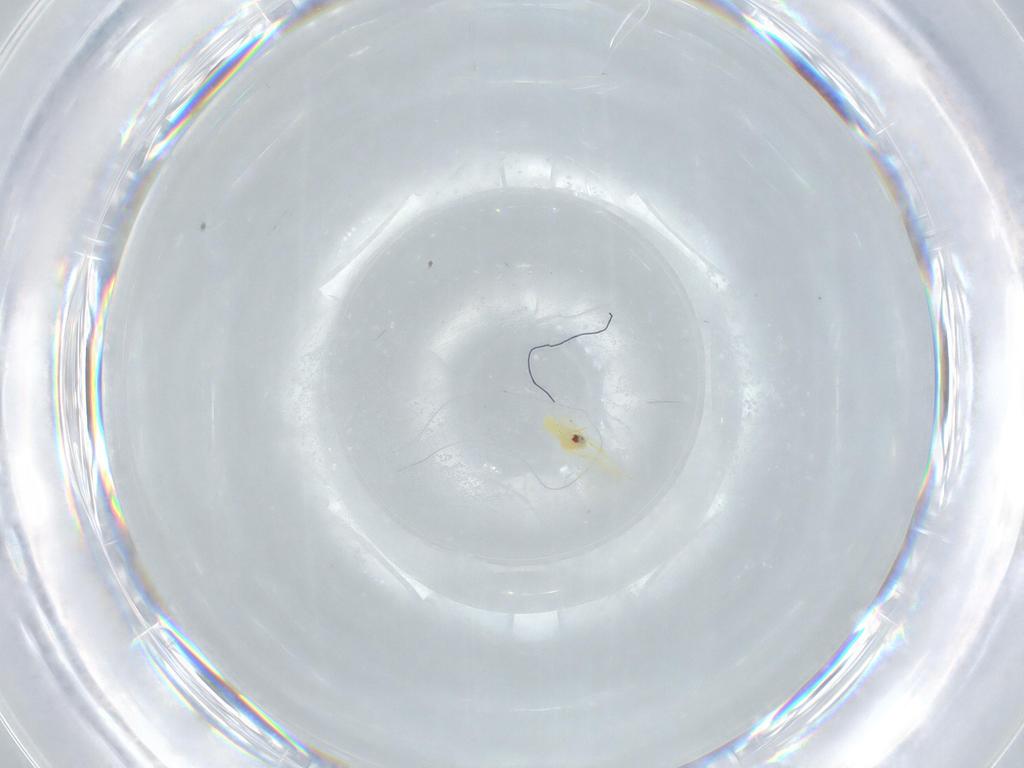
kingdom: Animalia
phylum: Arthropoda
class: Insecta
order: Hemiptera
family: Aleyrodidae
